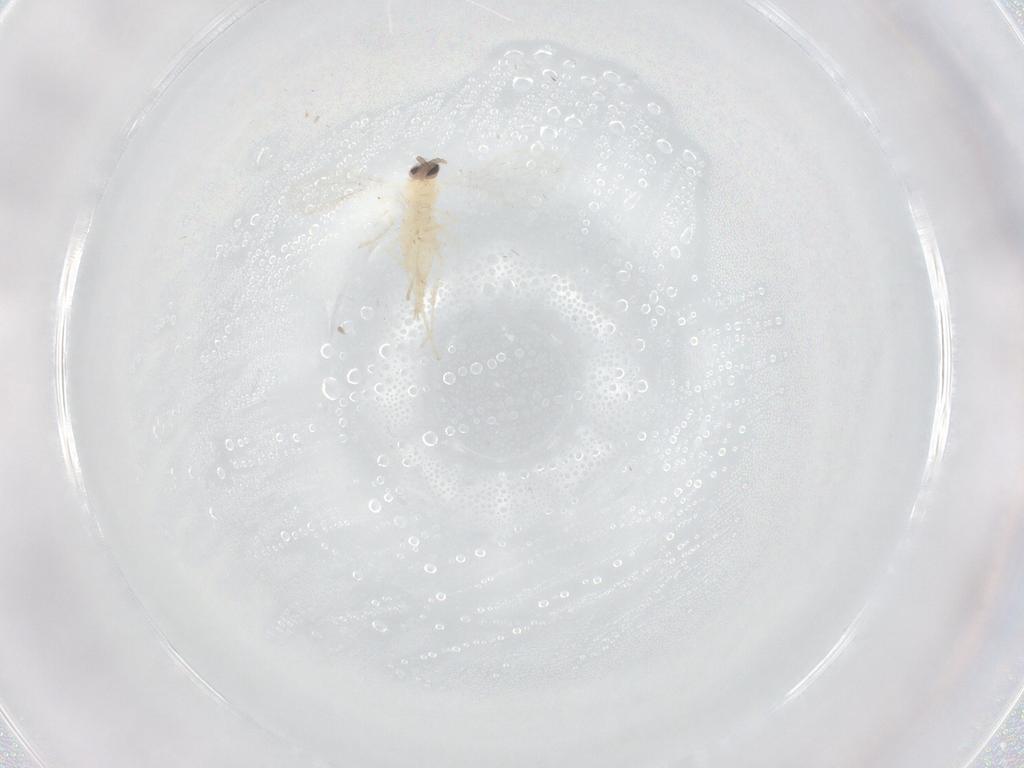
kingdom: Animalia
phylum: Arthropoda
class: Insecta
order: Diptera
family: Cecidomyiidae
